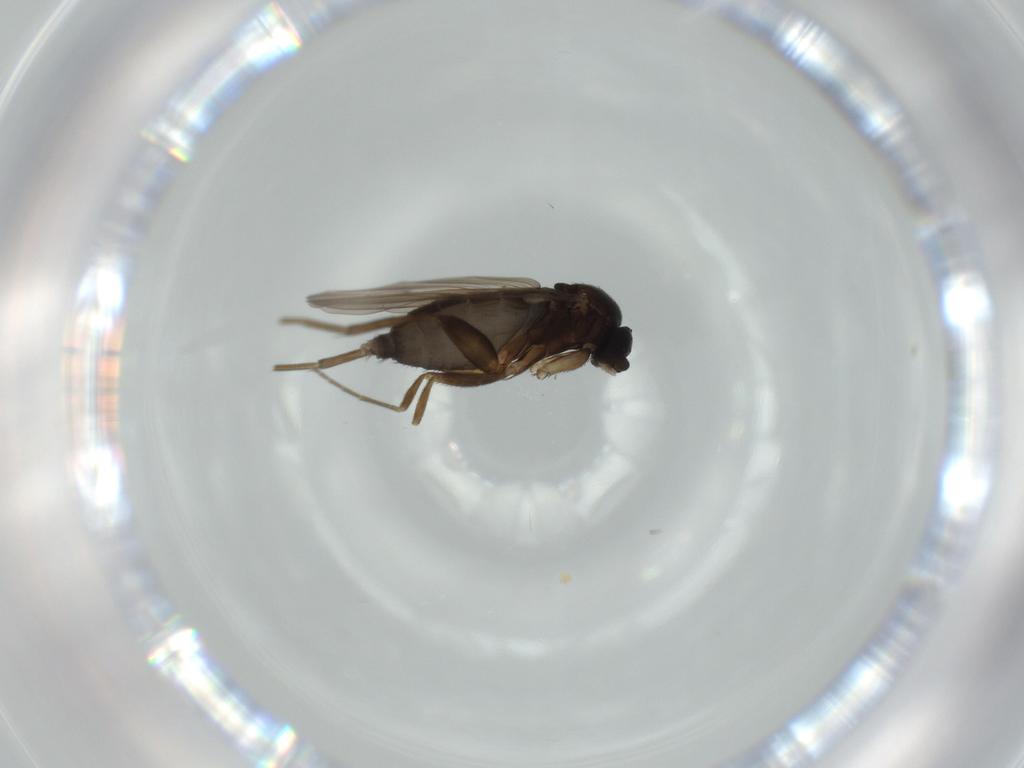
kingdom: Animalia
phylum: Arthropoda
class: Insecta
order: Diptera
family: Phoridae
